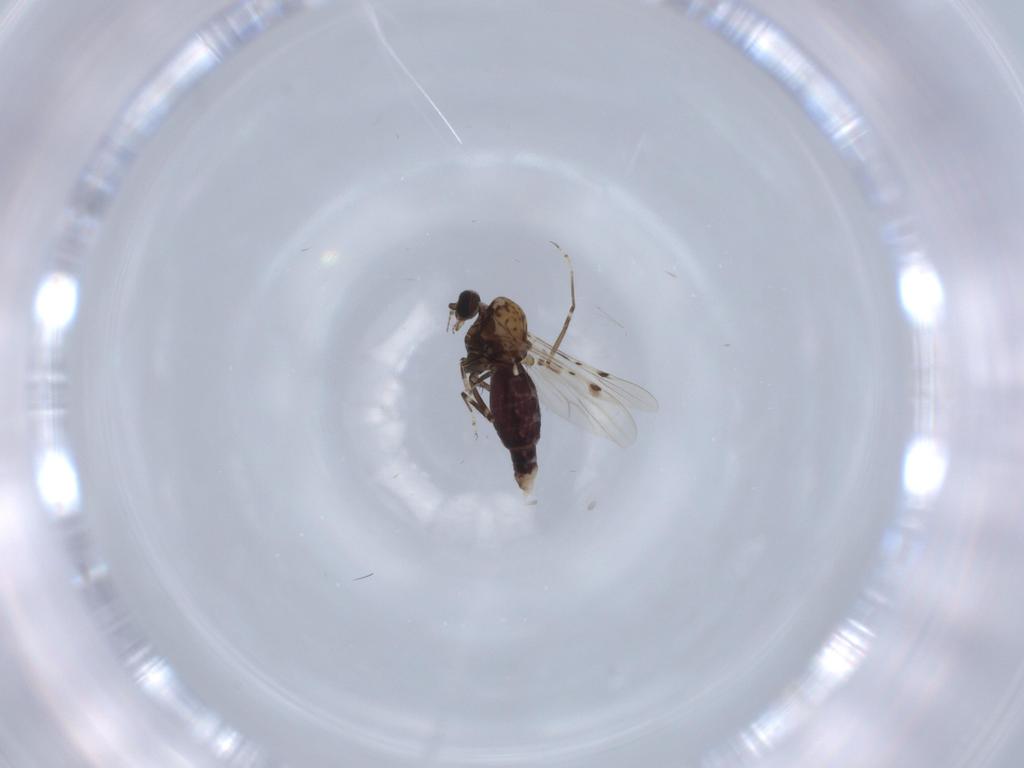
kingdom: Animalia
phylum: Arthropoda
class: Insecta
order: Diptera
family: Ceratopogonidae
